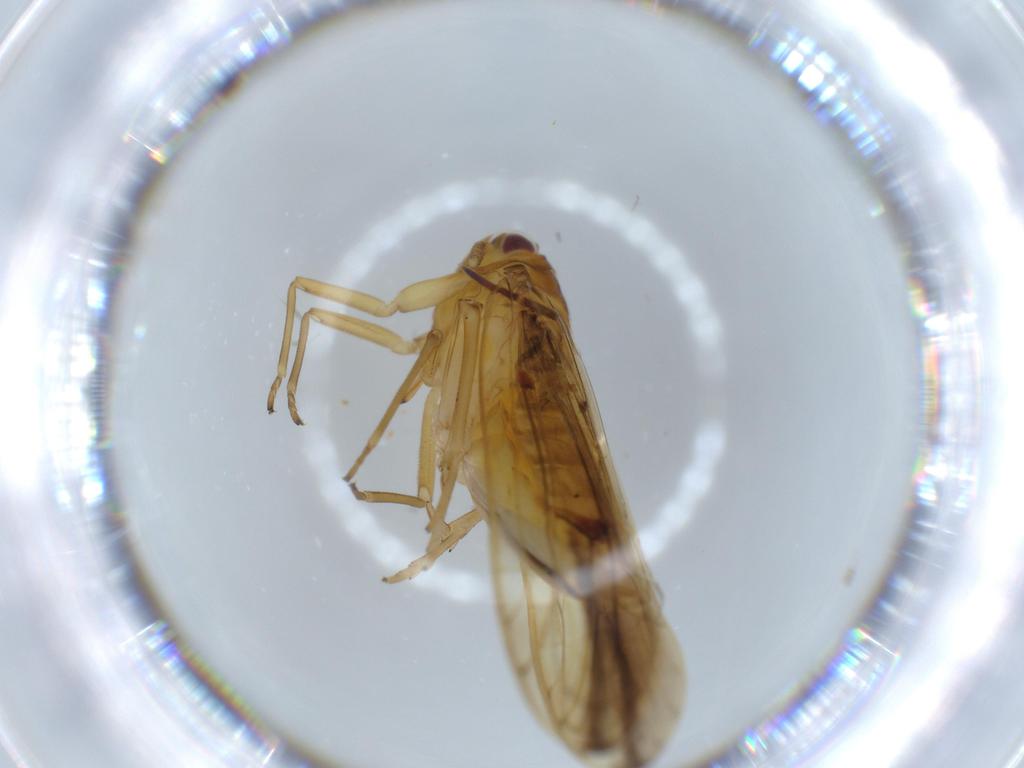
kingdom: Animalia
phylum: Arthropoda
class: Insecta
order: Hemiptera
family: Delphacidae
